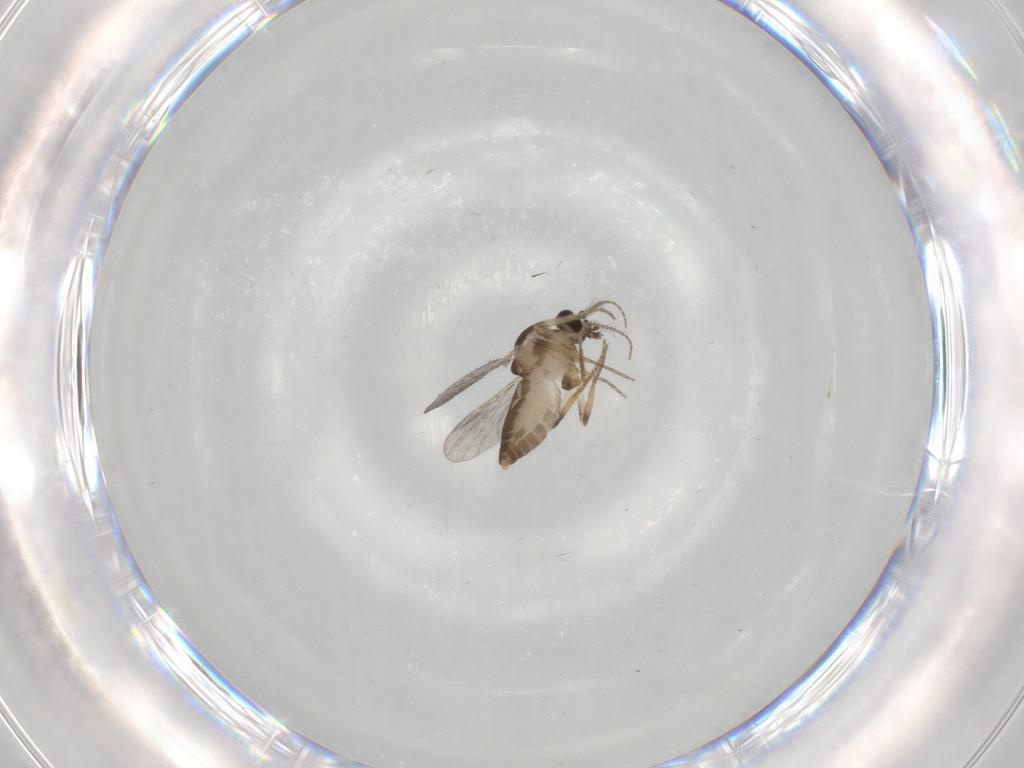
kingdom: Animalia
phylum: Arthropoda
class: Insecta
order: Diptera
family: Ceratopogonidae
